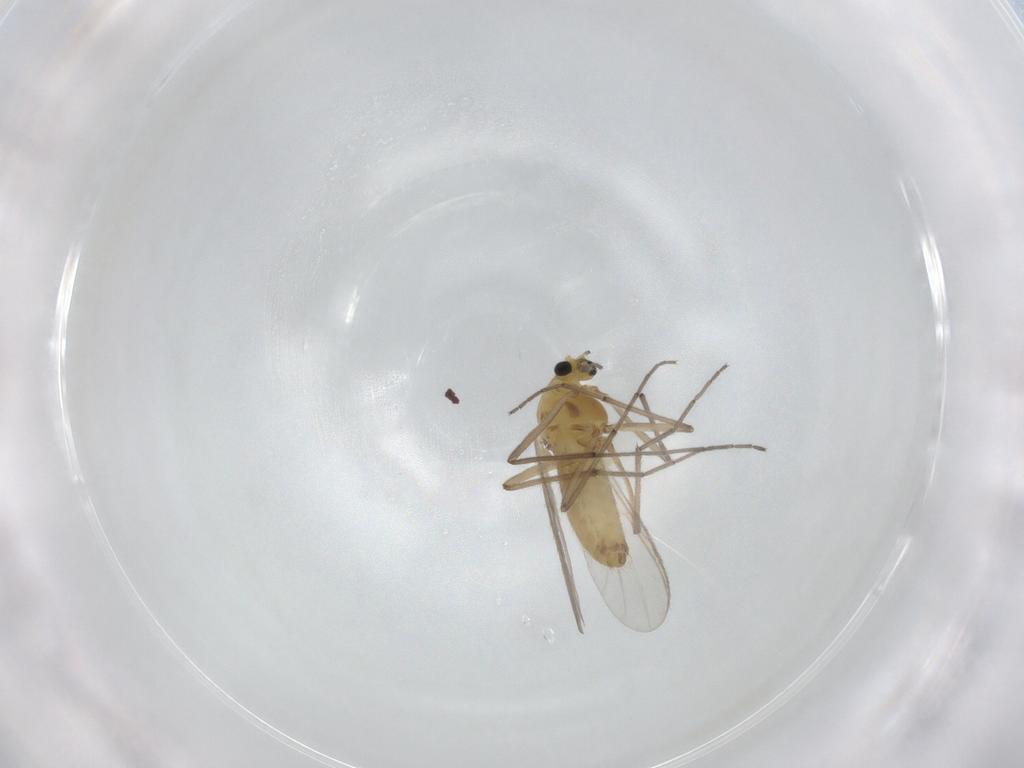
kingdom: Animalia
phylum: Arthropoda
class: Insecta
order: Diptera
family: Chironomidae
